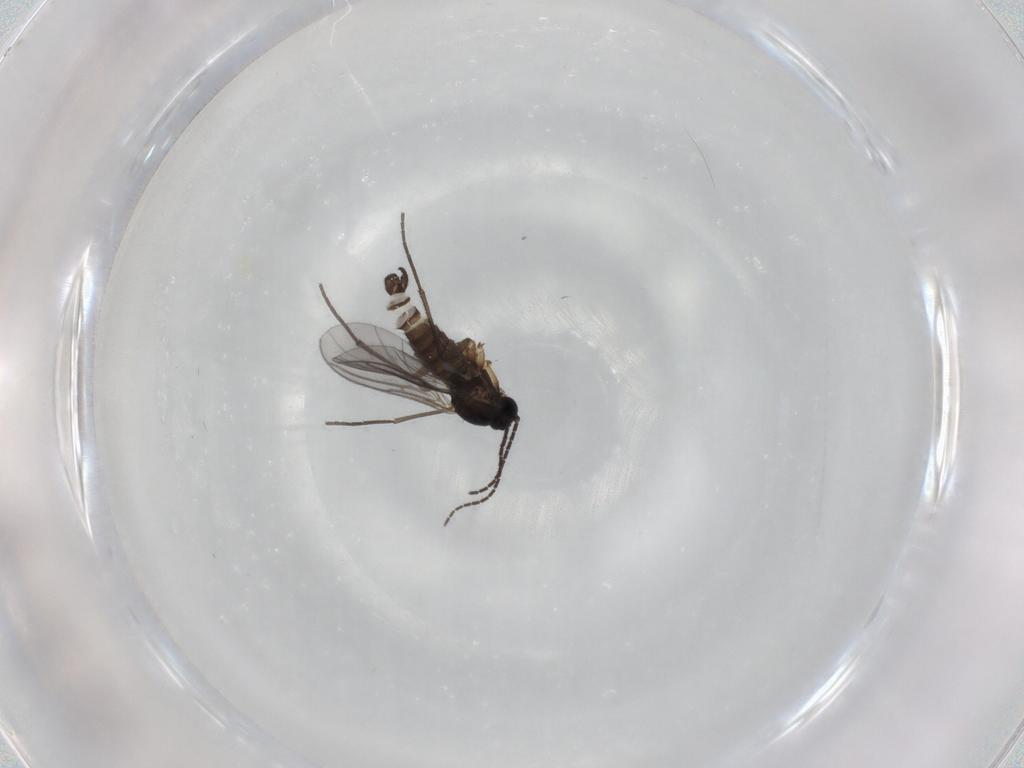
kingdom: Animalia
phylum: Arthropoda
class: Insecta
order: Diptera
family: Sciaridae
